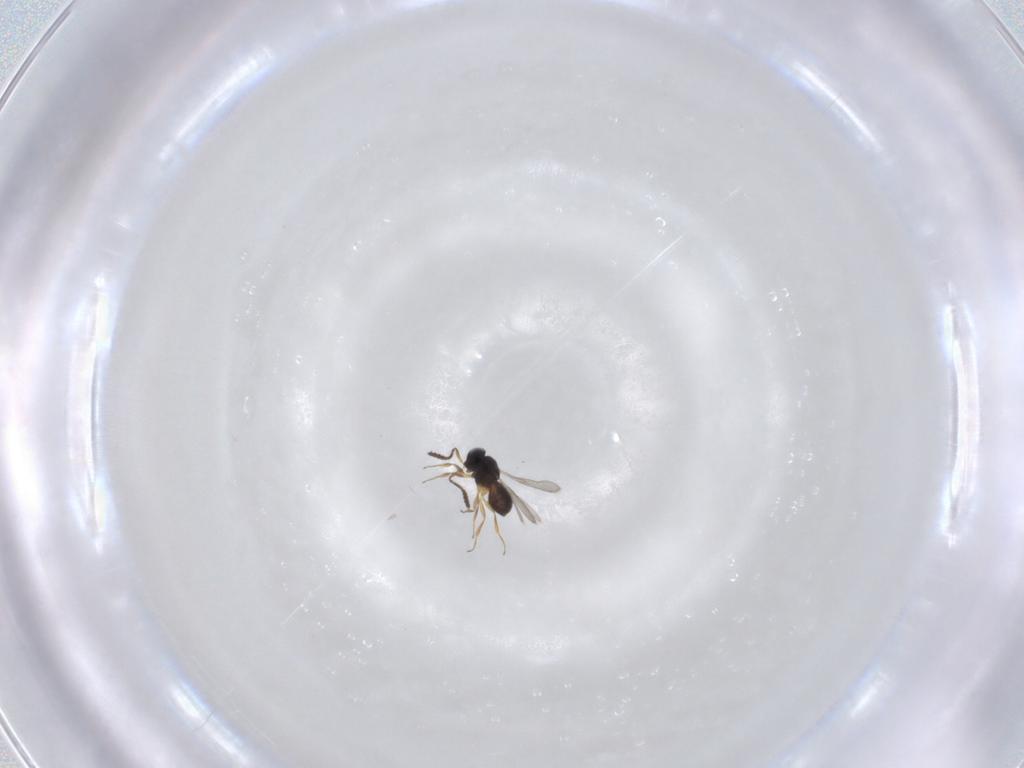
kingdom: Animalia
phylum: Arthropoda
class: Insecta
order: Hymenoptera
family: Scelionidae
